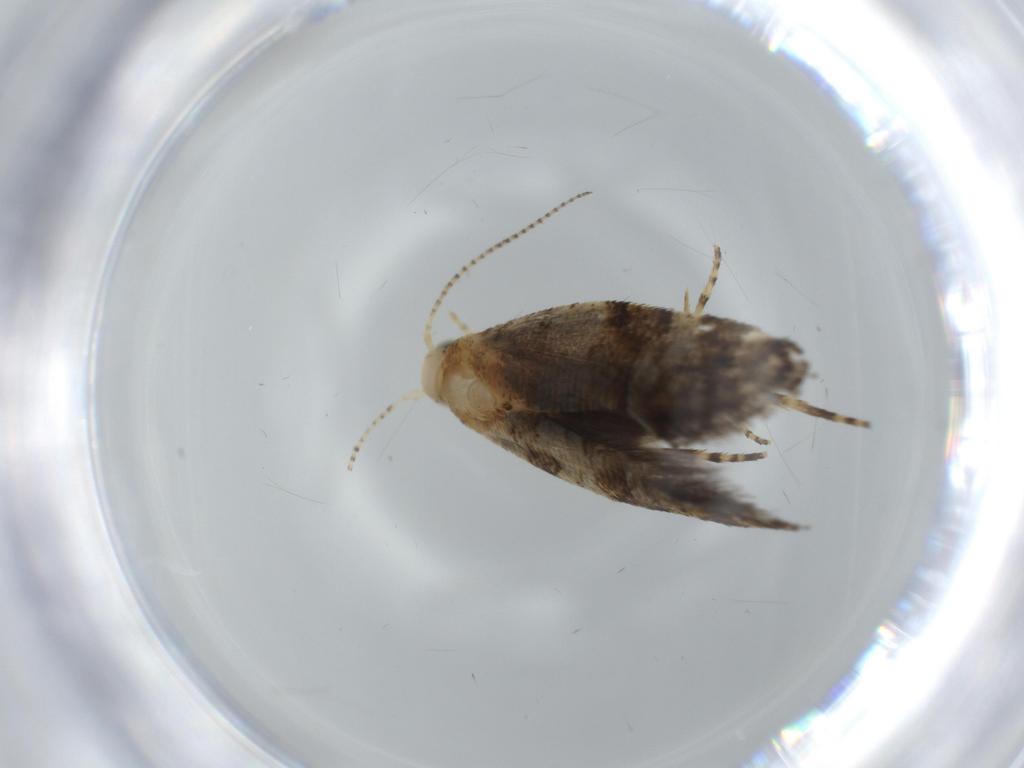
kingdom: Animalia
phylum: Arthropoda
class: Insecta
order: Lepidoptera
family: Glyphipterigidae
